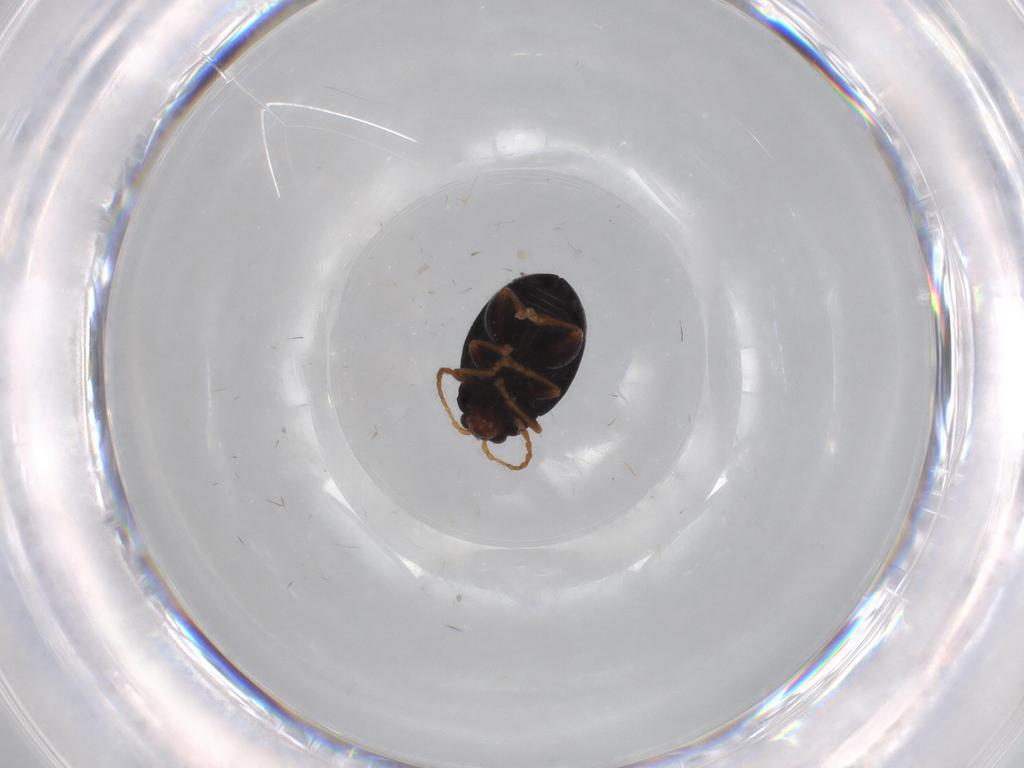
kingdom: Animalia
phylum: Arthropoda
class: Insecta
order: Coleoptera
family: Chrysomelidae
